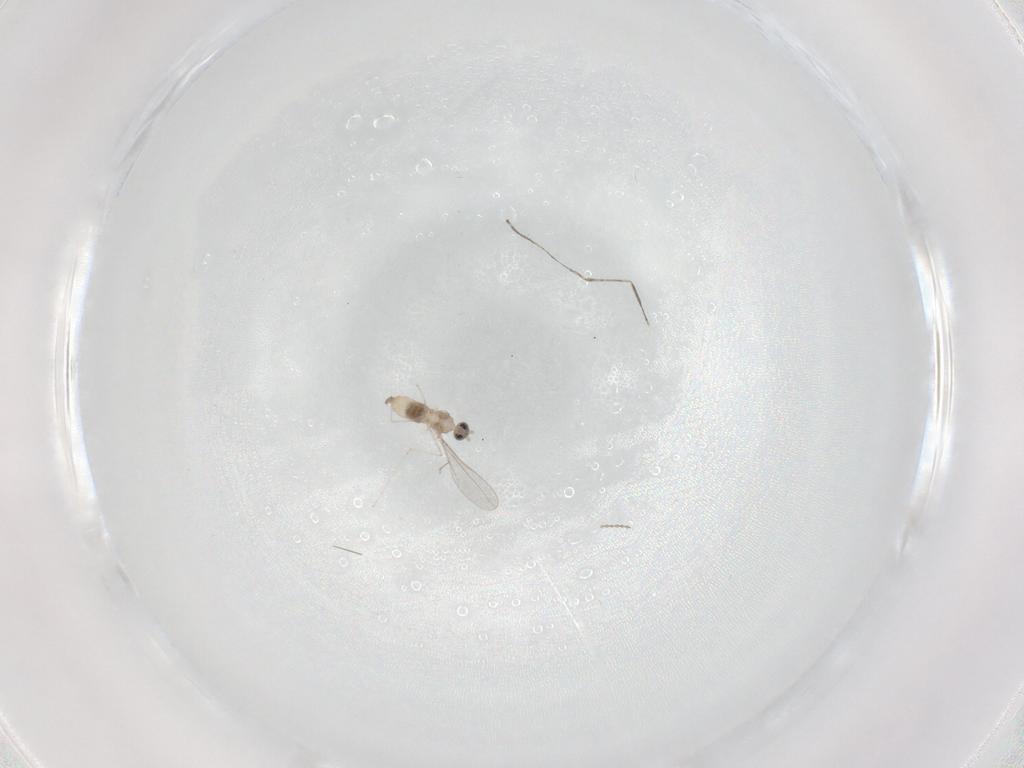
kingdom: Animalia
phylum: Arthropoda
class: Insecta
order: Diptera
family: Cecidomyiidae
